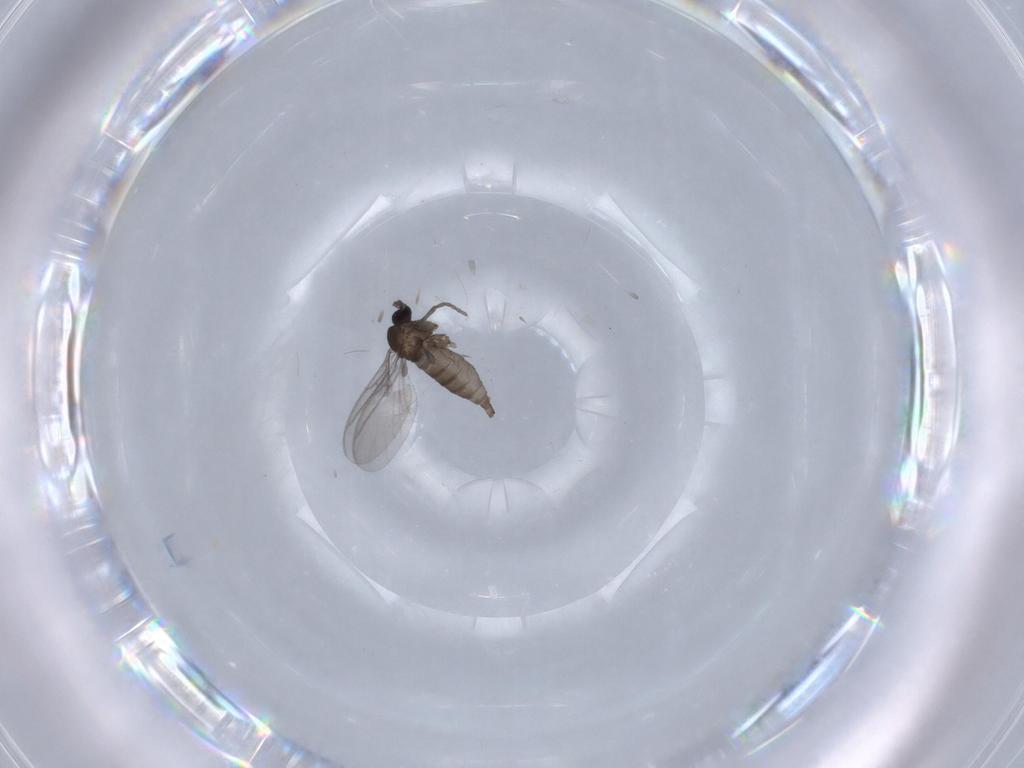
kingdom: Animalia
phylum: Arthropoda
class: Insecta
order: Diptera
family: Sciaridae
